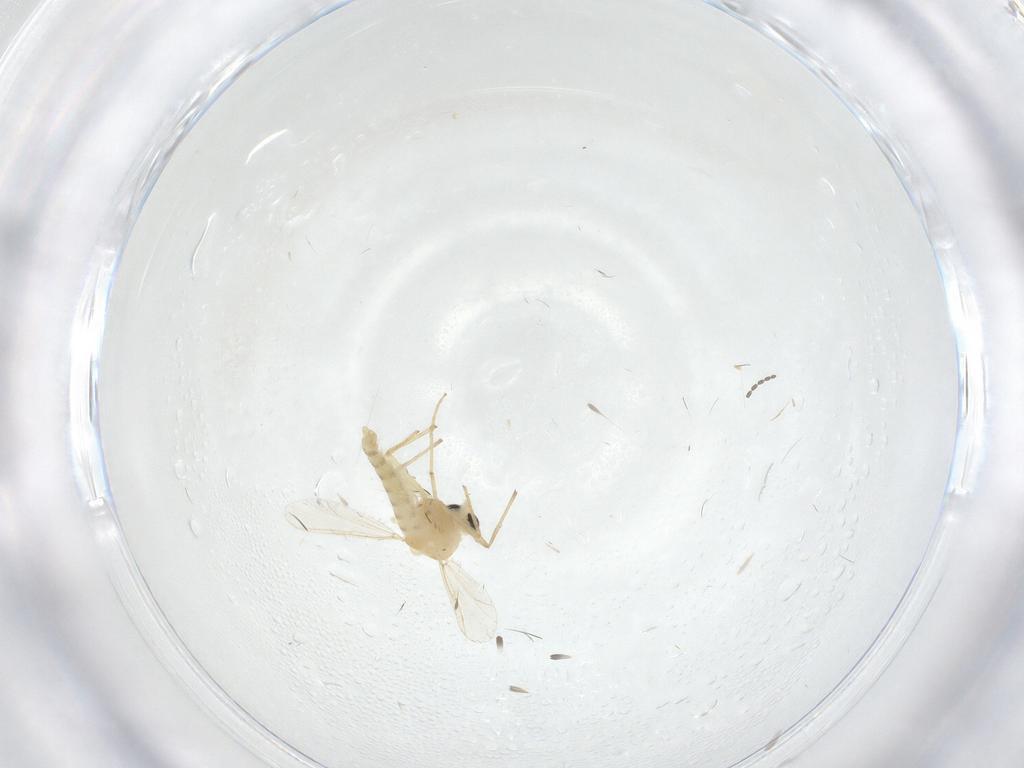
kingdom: Animalia
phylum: Arthropoda
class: Insecta
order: Diptera
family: Chironomidae
